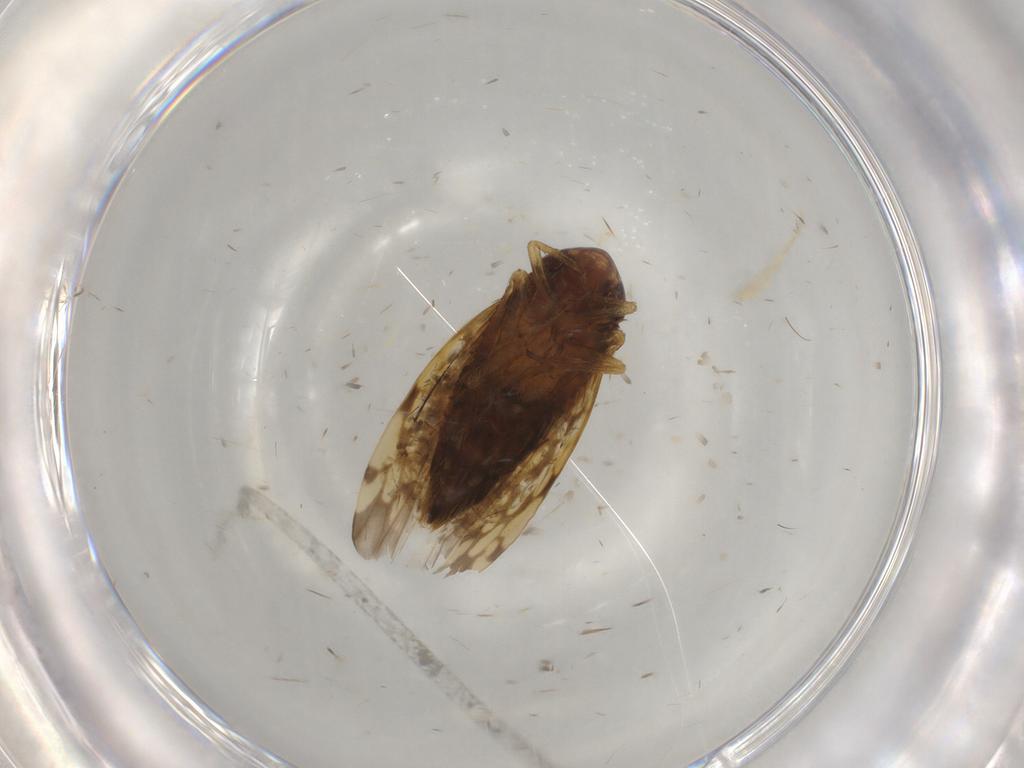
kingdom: Animalia
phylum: Arthropoda
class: Insecta
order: Hemiptera
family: Cicadellidae
